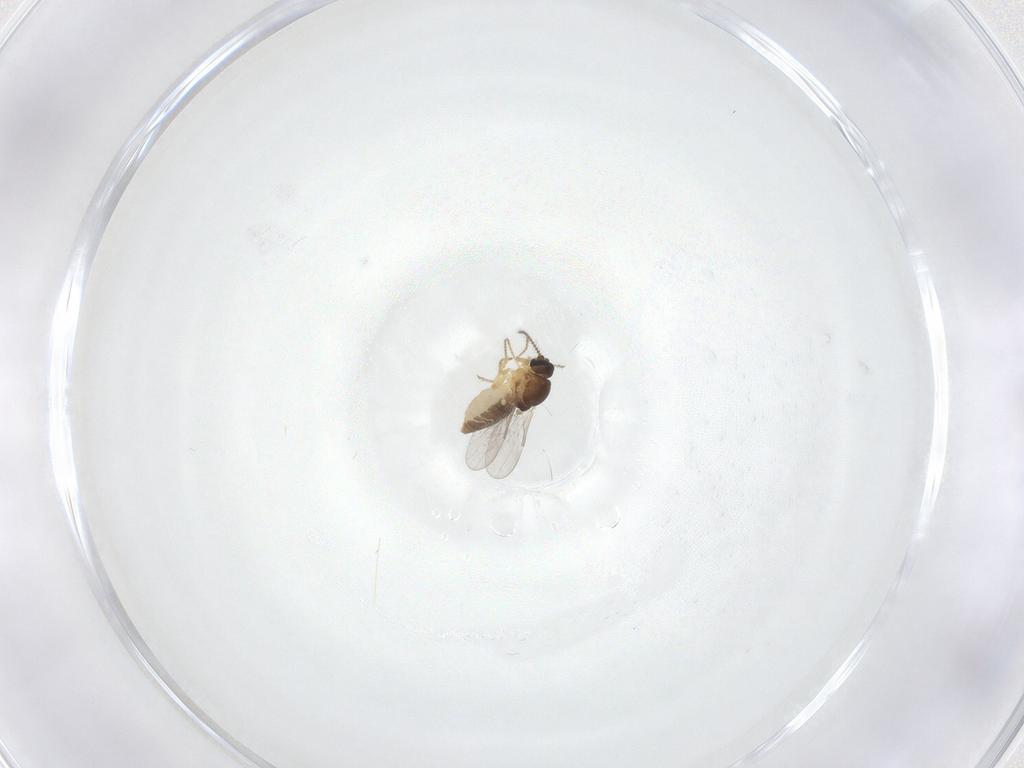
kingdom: Animalia
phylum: Arthropoda
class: Insecta
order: Diptera
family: Ceratopogonidae
